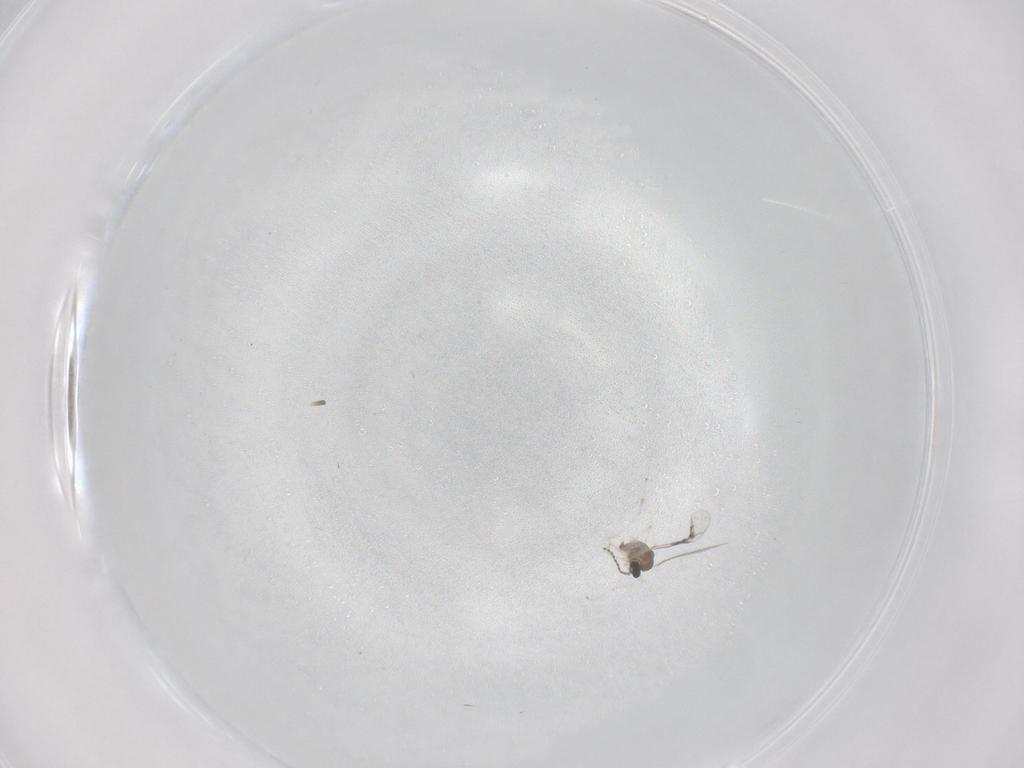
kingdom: Animalia
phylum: Arthropoda
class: Insecta
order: Diptera
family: Chironomidae
